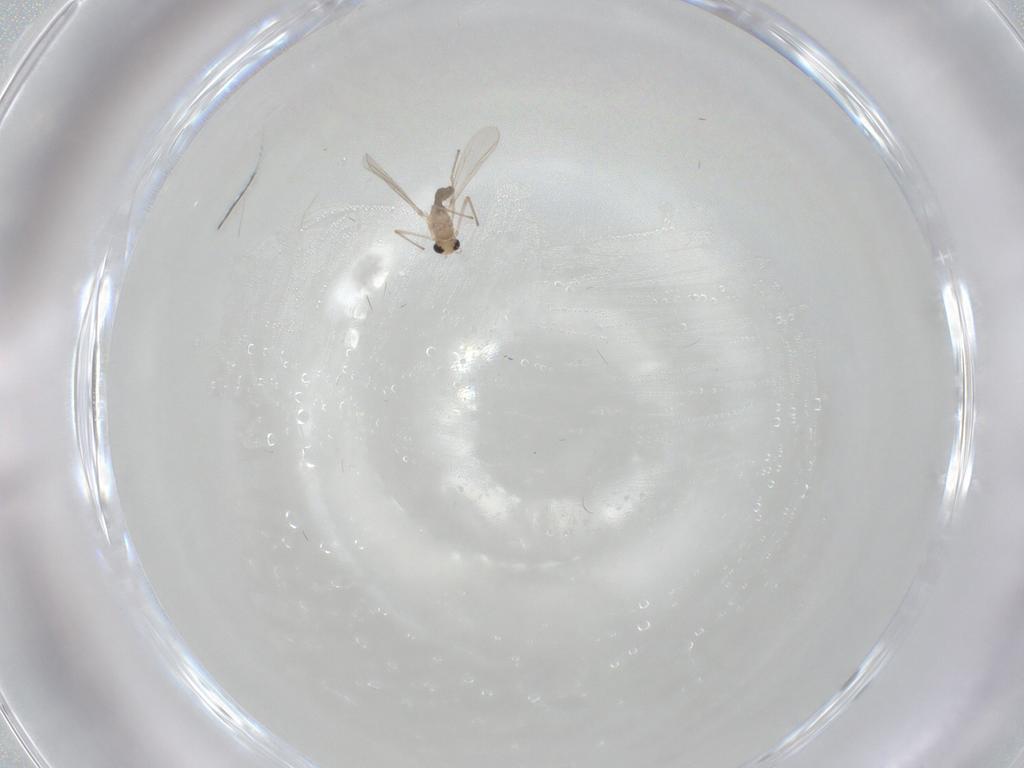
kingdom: Animalia
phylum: Arthropoda
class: Insecta
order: Diptera
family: Chironomidae
